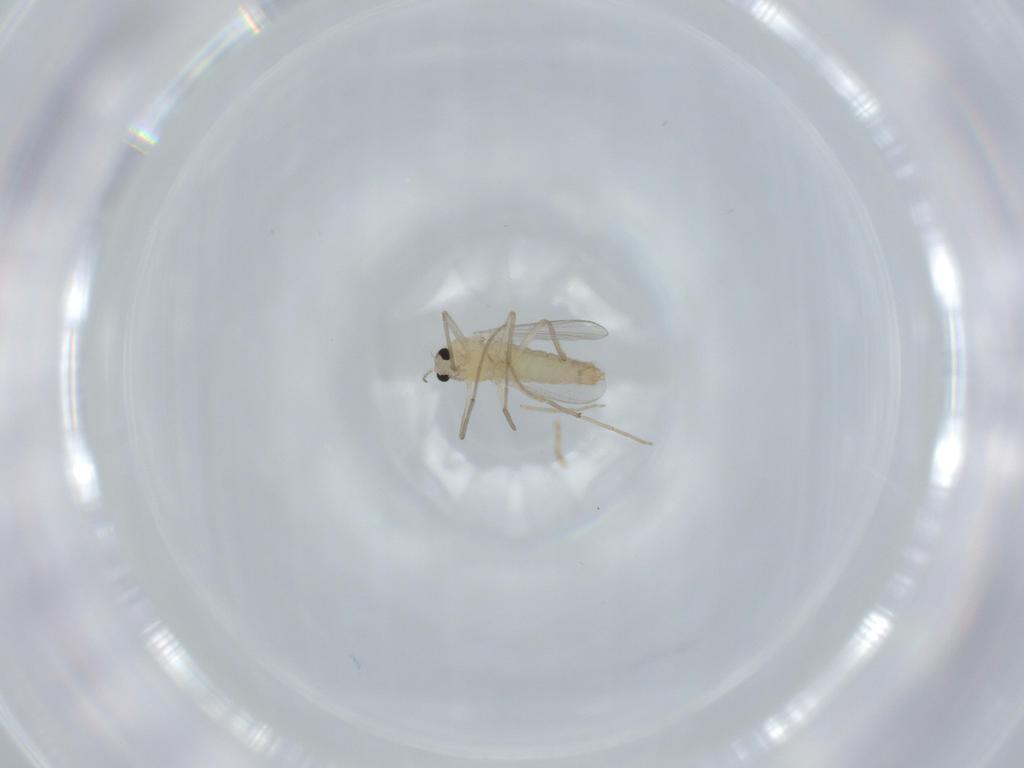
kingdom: Animalia
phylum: Arthropoda
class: Insecta
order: Diptera
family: Chironomidae
